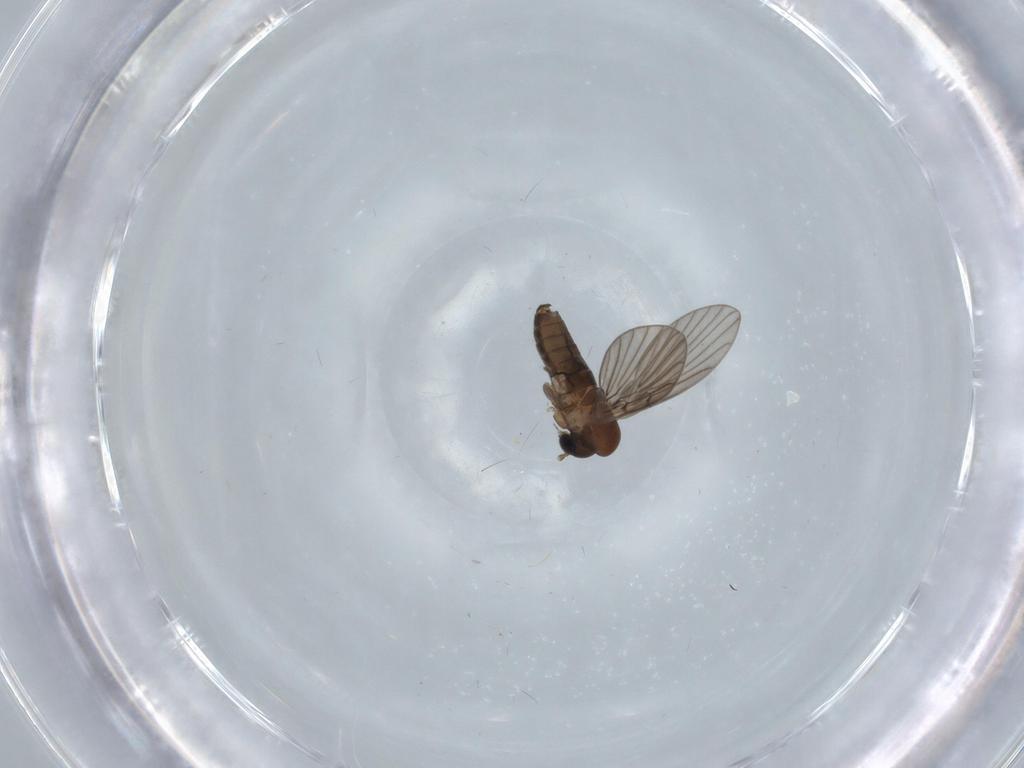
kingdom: Animalia
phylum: Arthropoda
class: Insecta
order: Diptera
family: Psychodidae
